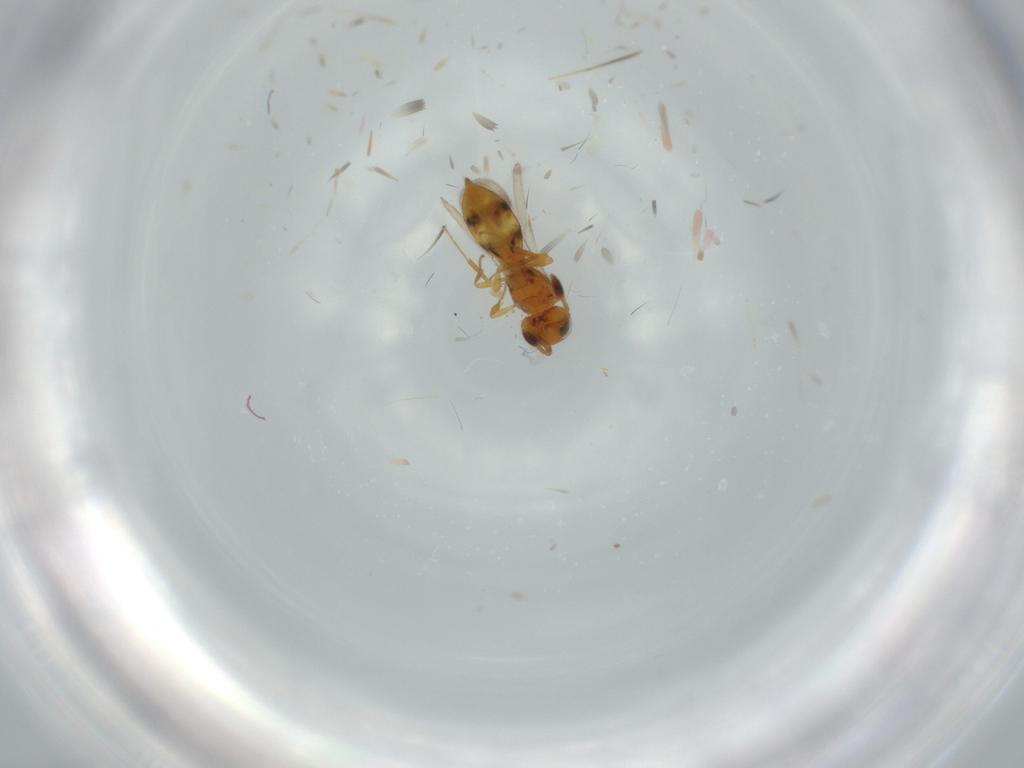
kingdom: Animalia
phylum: Arthropoda
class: Insecta
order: Hymenoptera
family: Scelionidae
